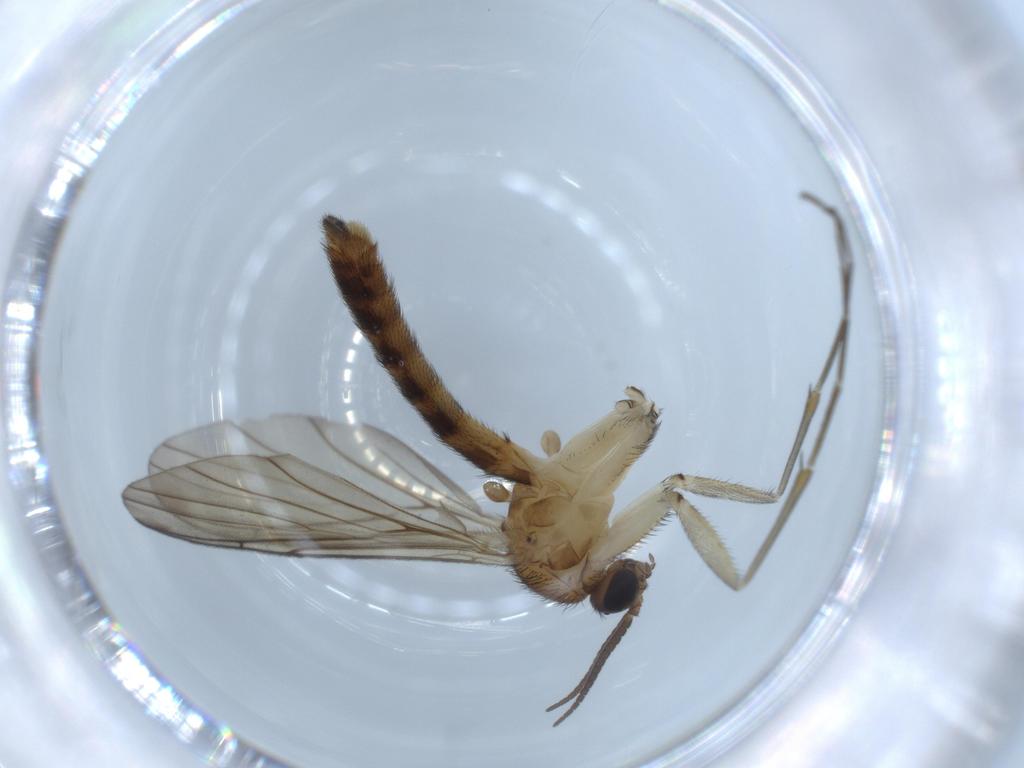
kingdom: Animalia
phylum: Arthropoda
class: Insecta
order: Diptera
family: Keroplatidae
